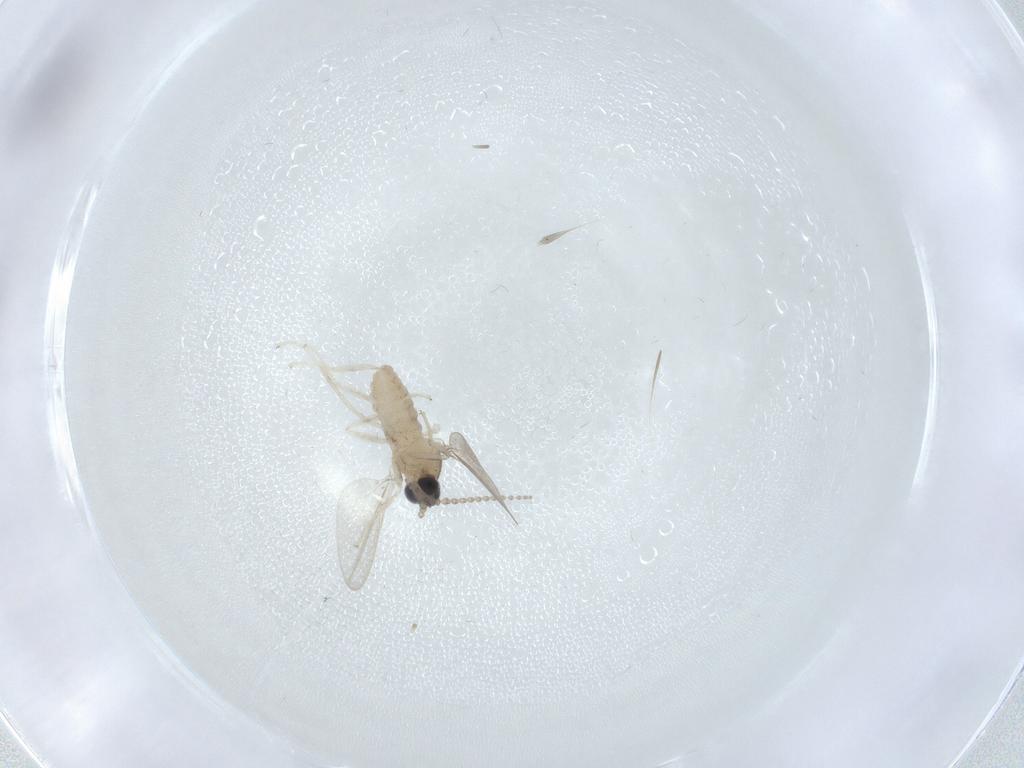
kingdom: Animalia
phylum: Arthropoda
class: Insecta
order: Diptera
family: Cecidomyiidae
